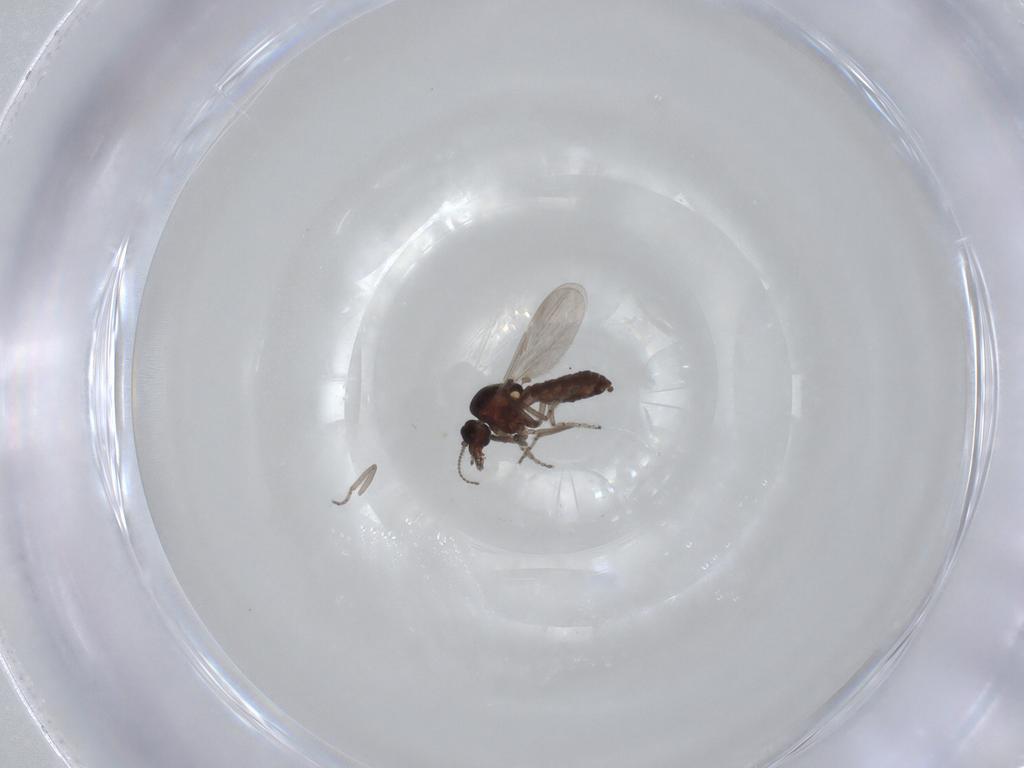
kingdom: Animalia
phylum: Arthropoda
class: Insecta
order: Diptera
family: Ceratopogonidae
